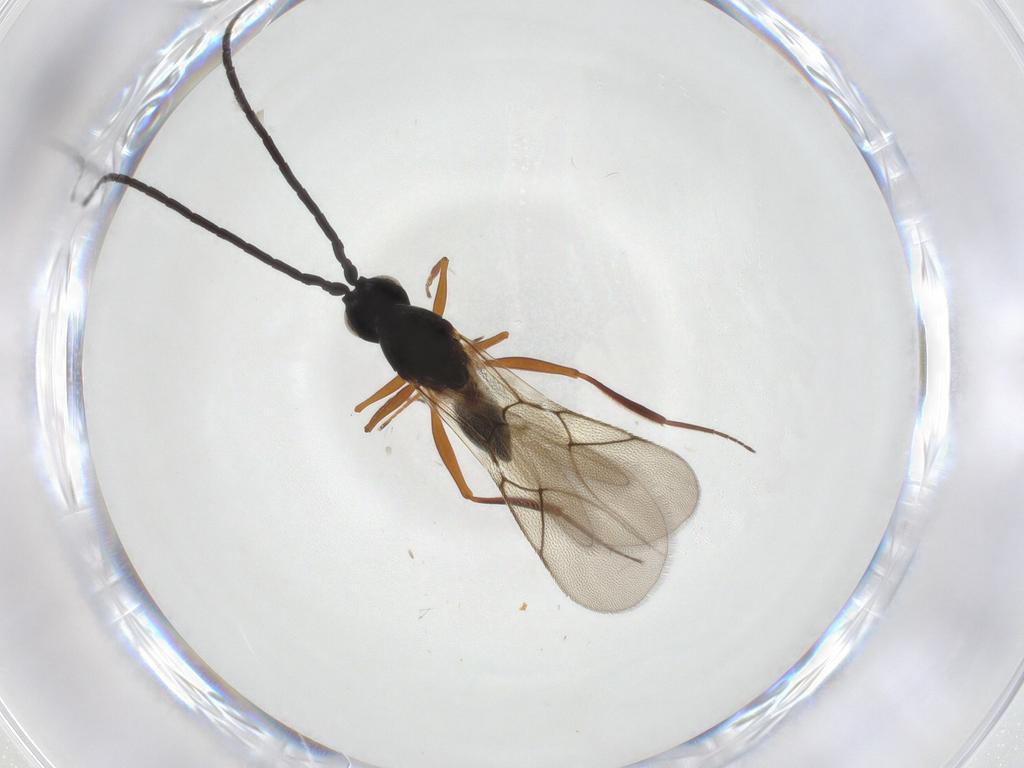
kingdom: Animalia
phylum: Arthropoda
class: Insecta
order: Hymenoptera
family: Figitidae
